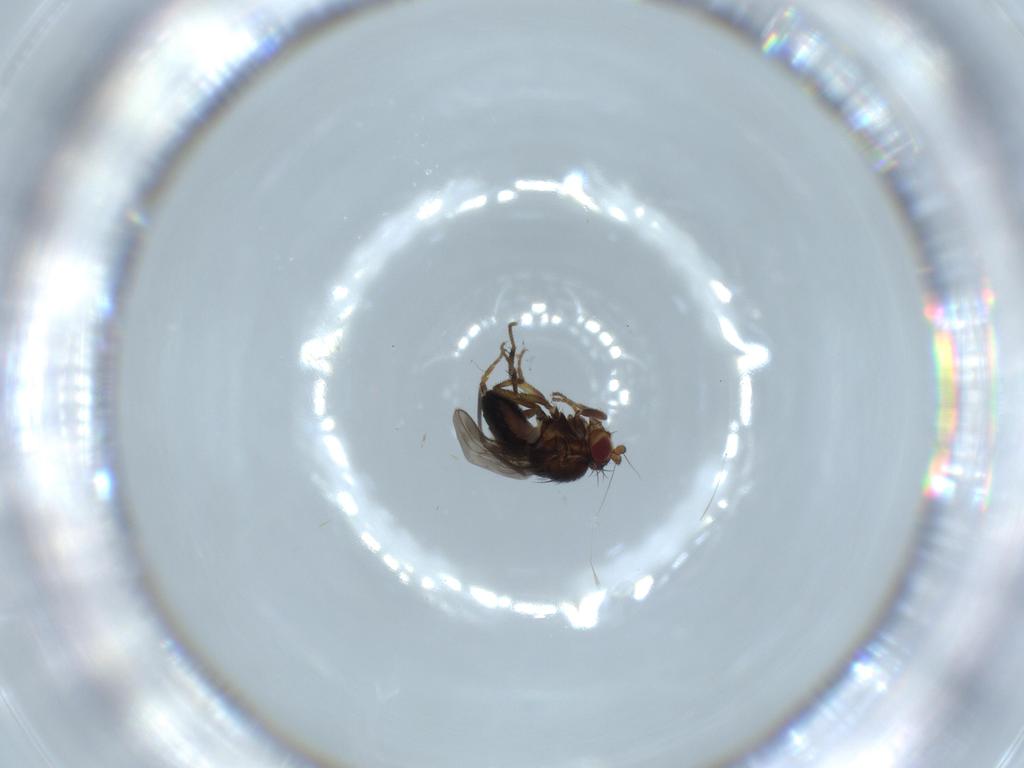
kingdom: Animalia
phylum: Arthropoda
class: Insecta
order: Diptera
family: Sphaeroceridae
